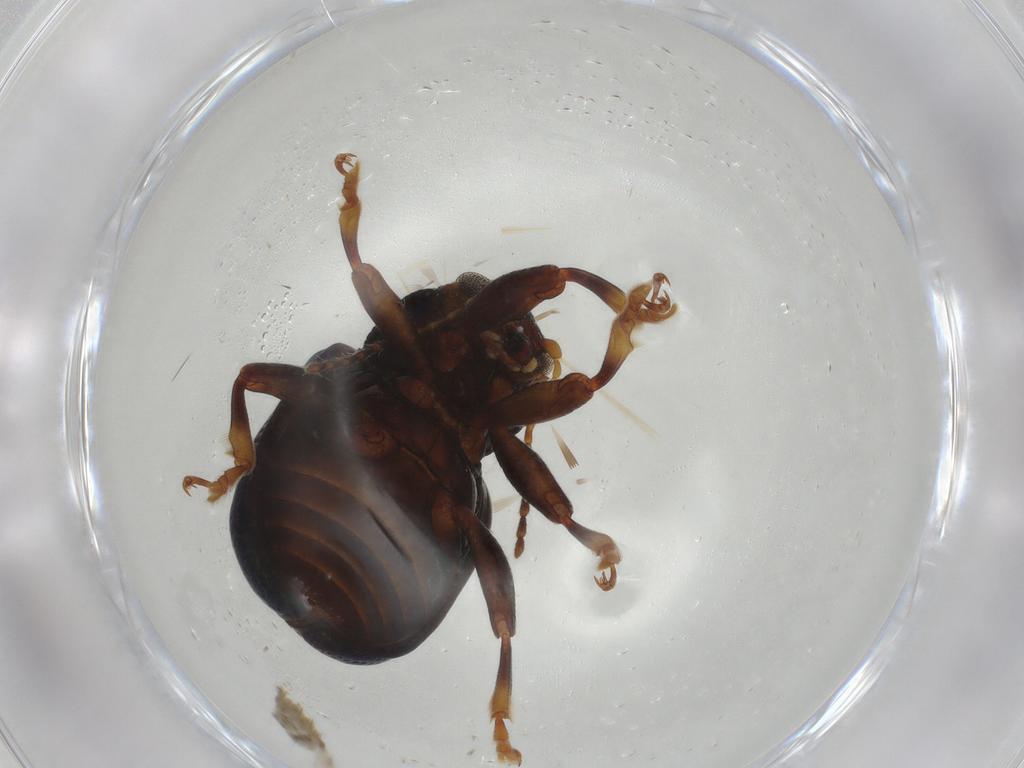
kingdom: Animalia
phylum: Arthropoda
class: Insecta
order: Coleoptera
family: Chrysomelidae
